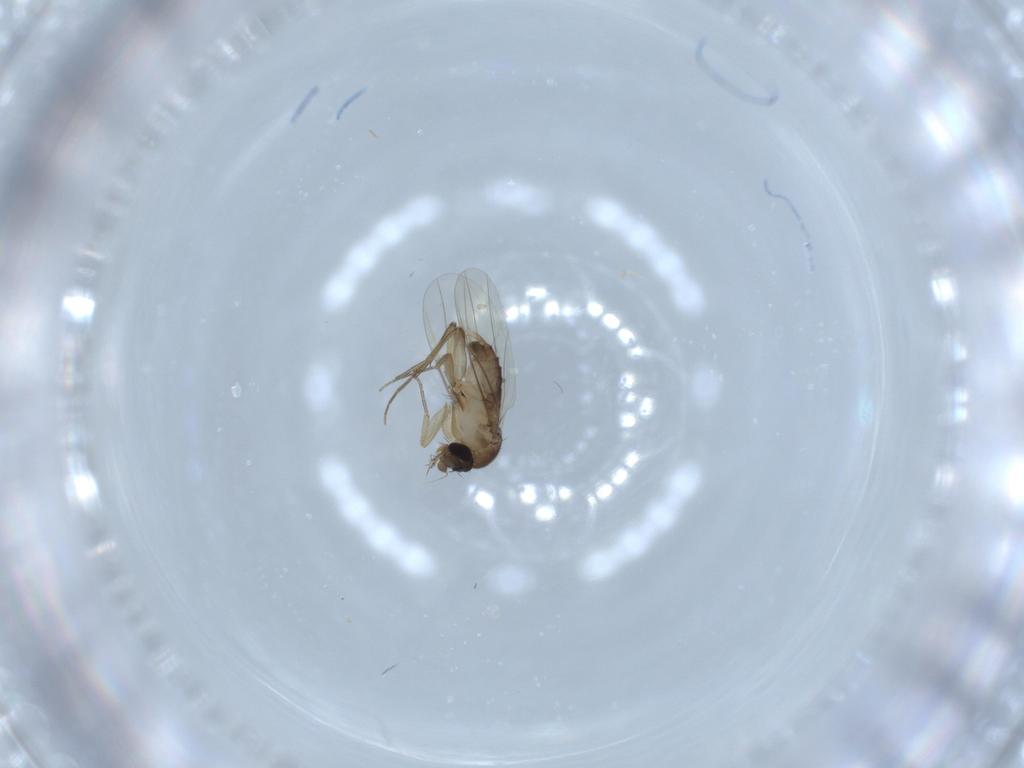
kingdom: Animalia
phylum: Arthropoda
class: Insecta
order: Diptera
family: Phoridae
